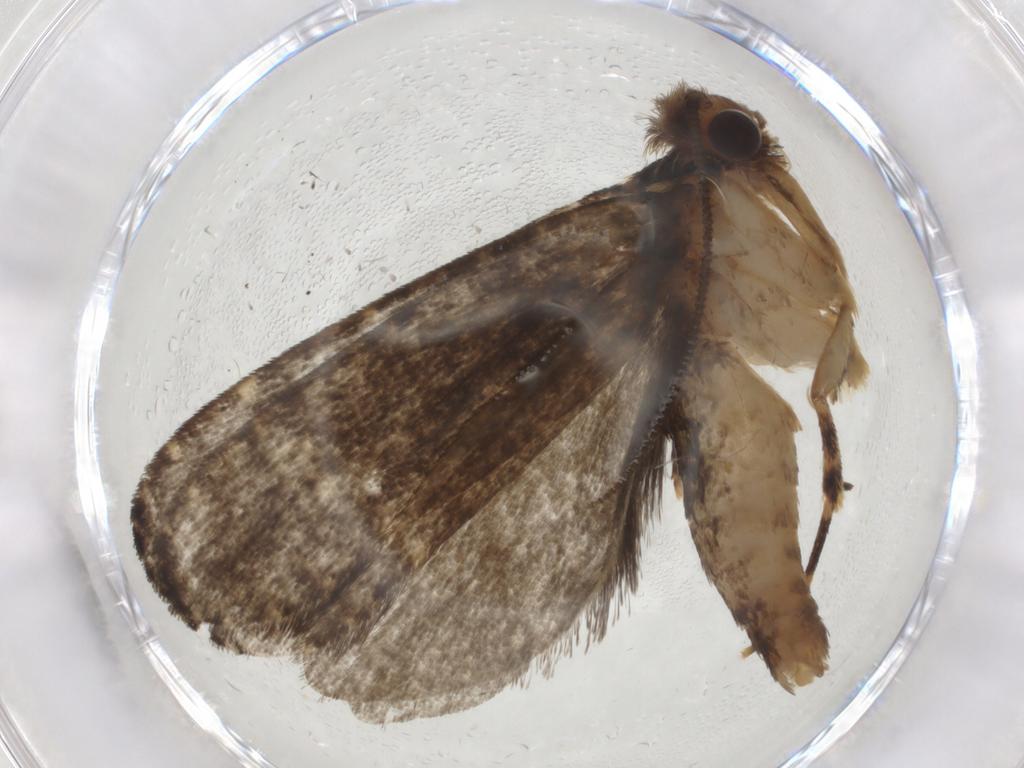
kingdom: Animalia
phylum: Arthropoda
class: Insecta
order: Lepidoptera
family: Tineidae
